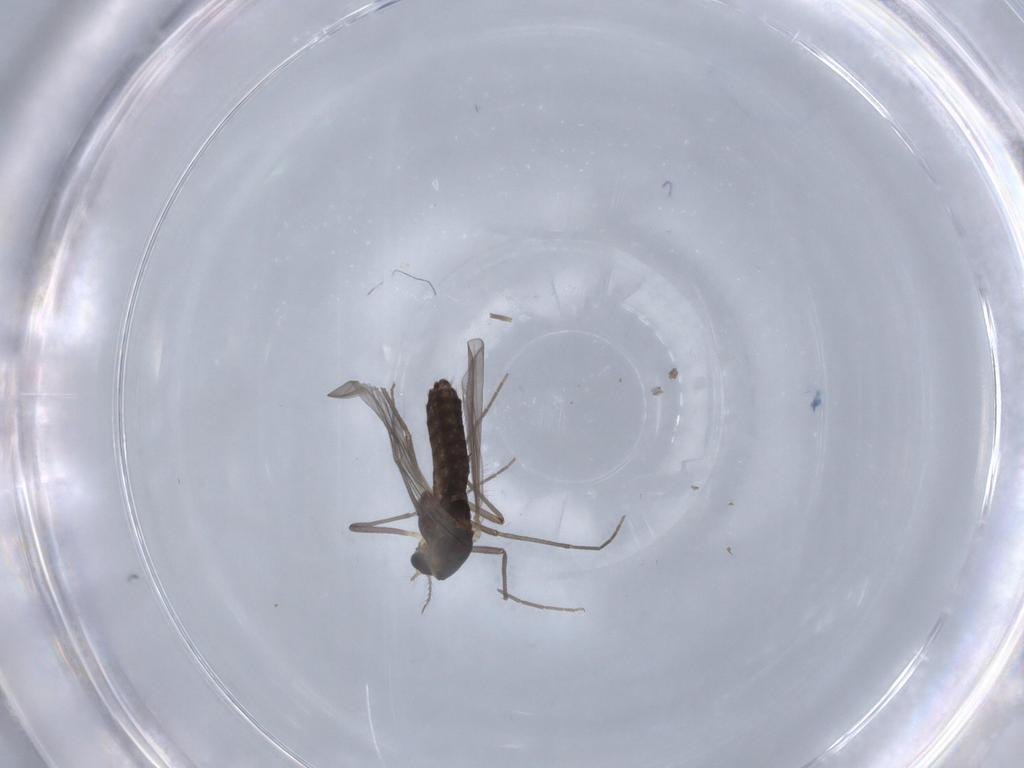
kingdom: Animalia
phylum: Arthropoda
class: Insecta
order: Diptera
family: Chironomidae
